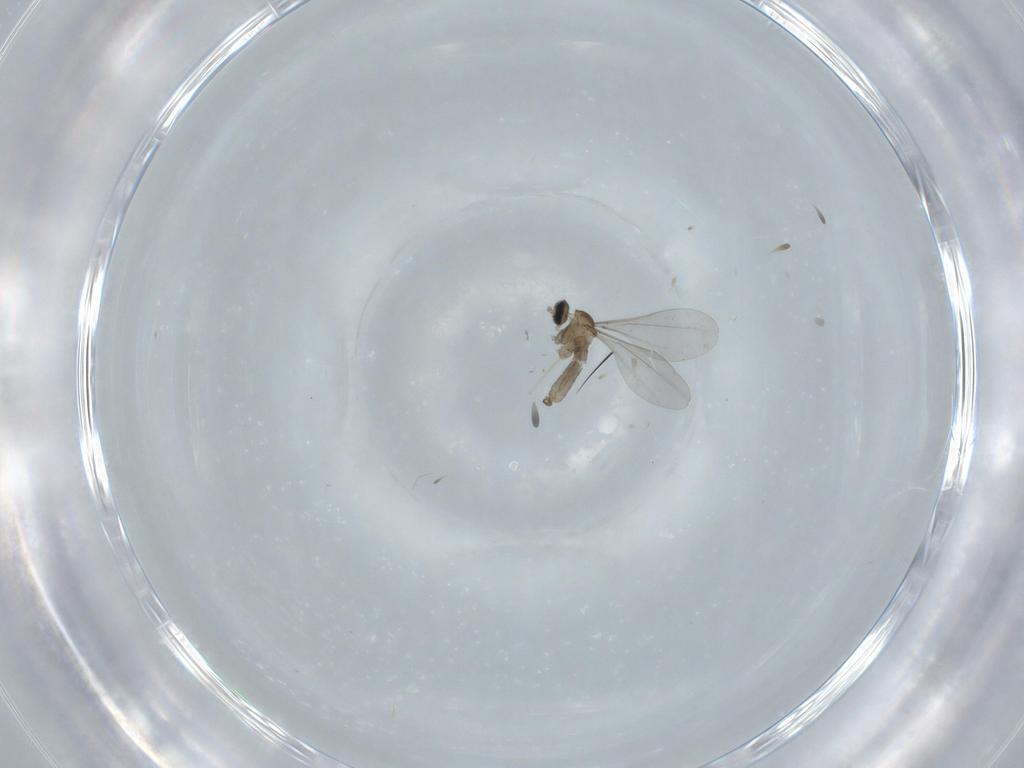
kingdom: Animalia
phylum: Arthropoda
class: Insecta
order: Diptera
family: Cecidomyiidae
